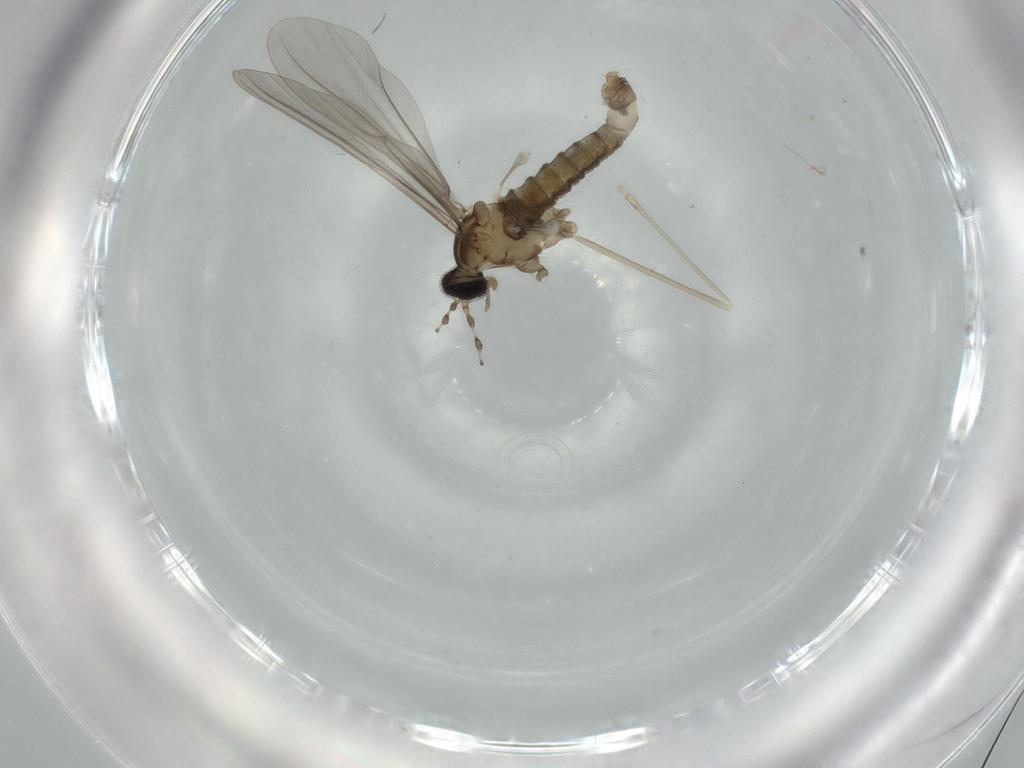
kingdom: Animalia
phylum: Arthropoda
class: Insecta
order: Diptera
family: Cecidomyiidae
